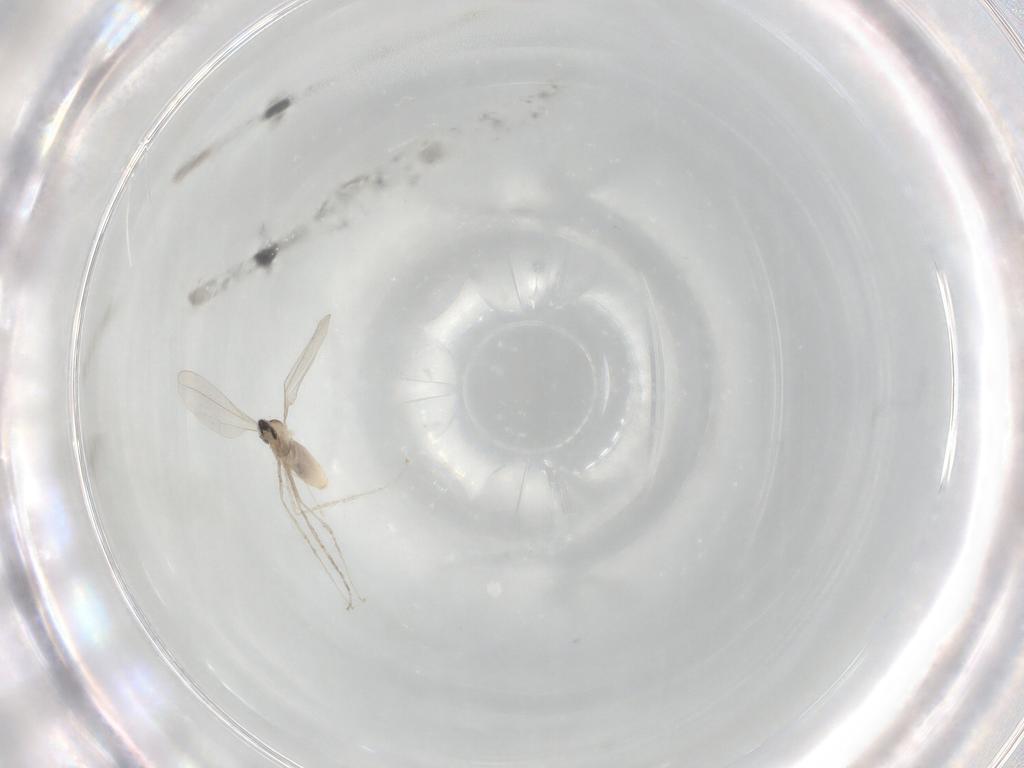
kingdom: Animalia
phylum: Arthropoda
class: Insecta
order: Diptera
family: Cecidomyiidae
